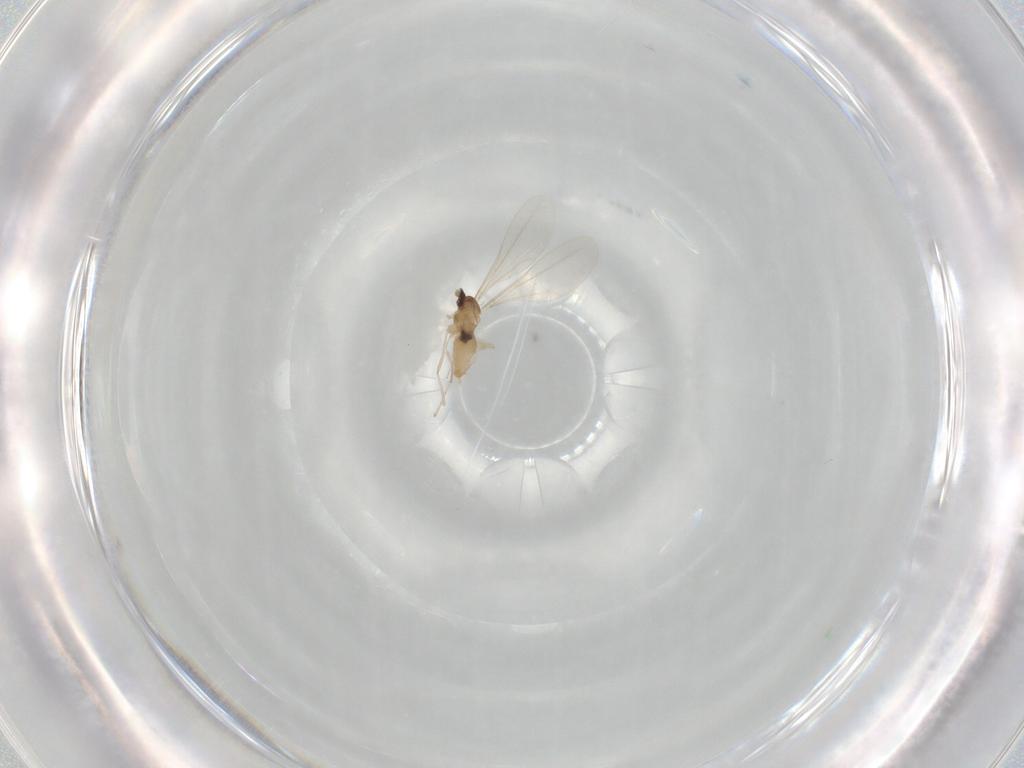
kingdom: Animalia
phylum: Arthropoda
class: Insecta
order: Diptera
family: Cecidomyiidae
